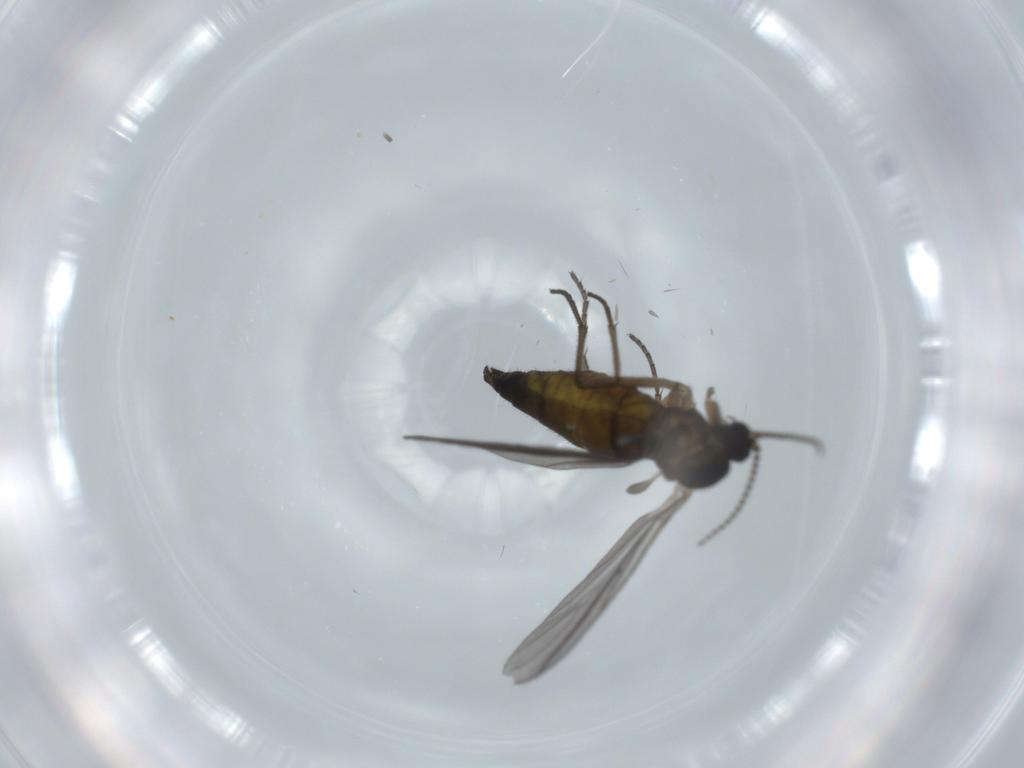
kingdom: Animalia
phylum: Arthropoda
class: Insecta
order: Diptera
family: Sciaridae
